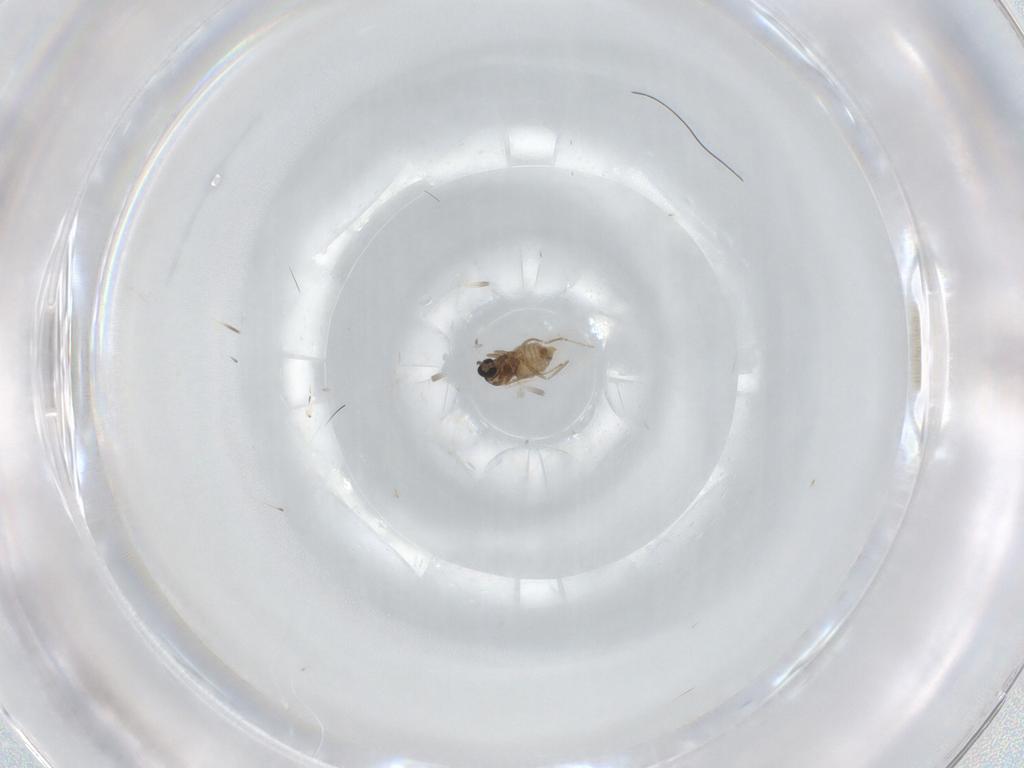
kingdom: Animalia
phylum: Arthropoda
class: Insecta
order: Diptera
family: Cecidomyiidae
